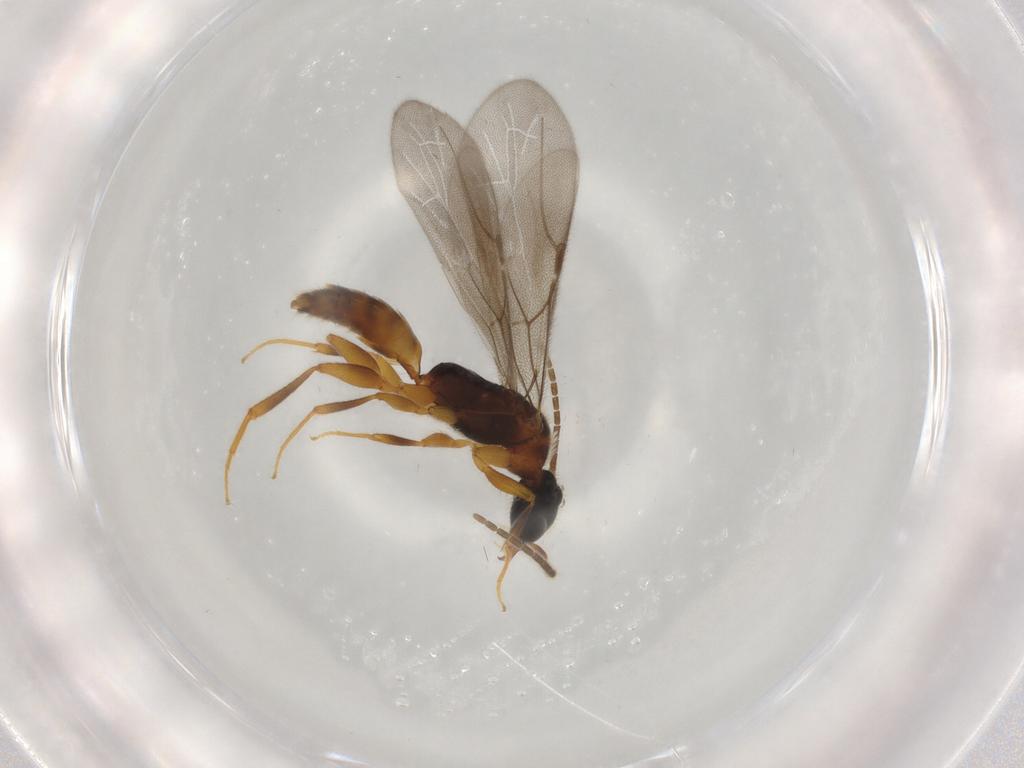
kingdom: Animalia
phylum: Arthropoda
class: Insecta
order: Hymenoptera
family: Bethylidae
